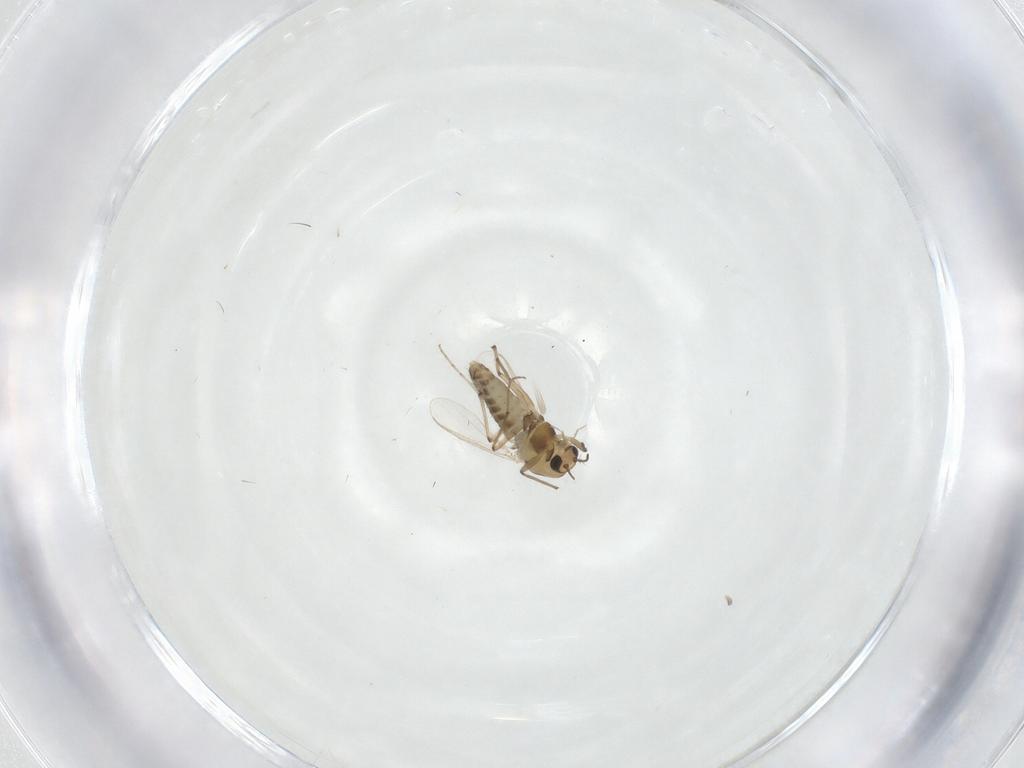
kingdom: Animalia
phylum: Arthropoda
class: Insecta
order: Diptera
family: Chironomidae
